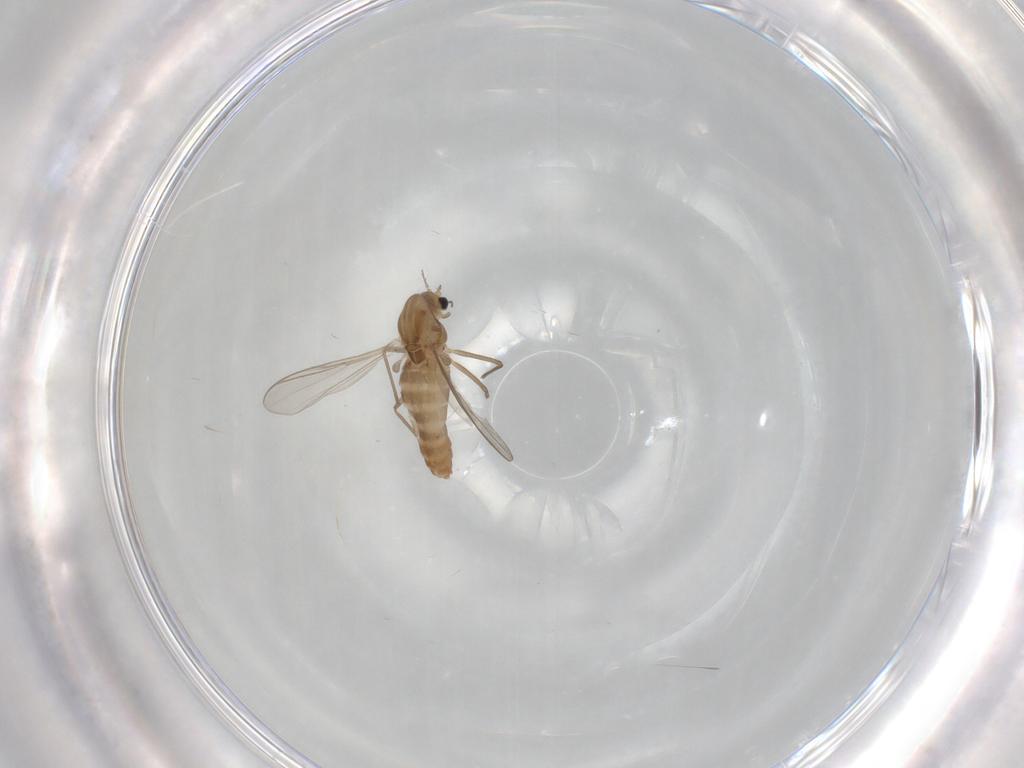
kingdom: Animalia
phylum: Arthropoda
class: Insecta
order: Diptera
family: Chironomidae
